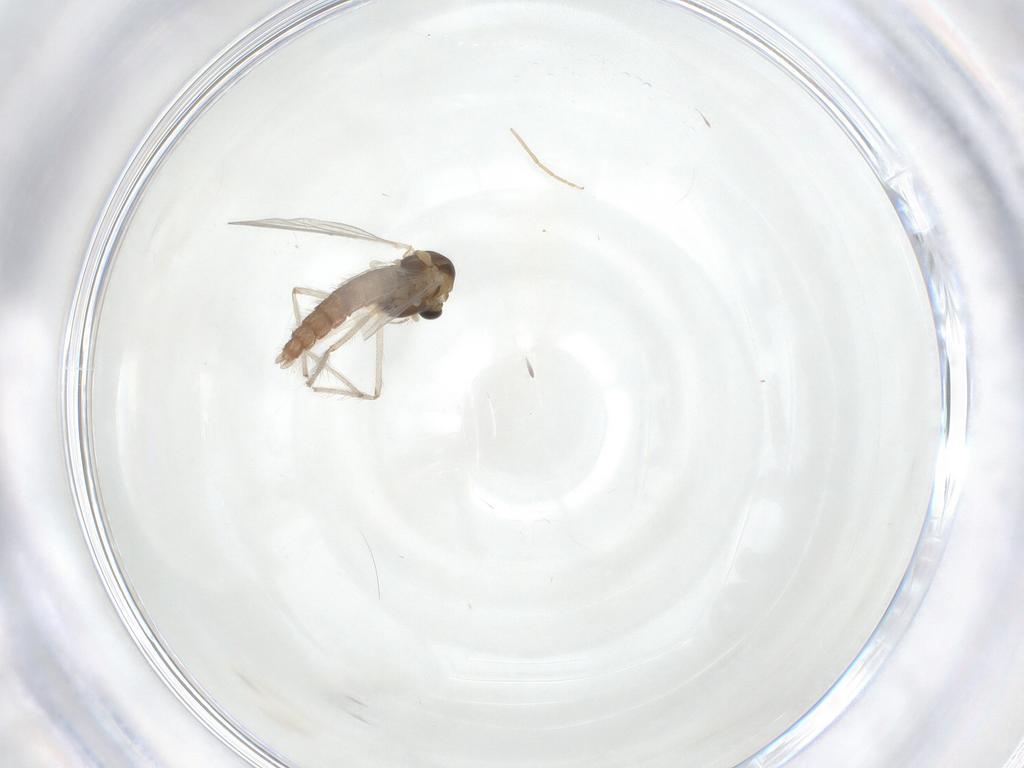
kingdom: Animalia
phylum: Arthropoda
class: Insecta
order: Diptera
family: Chironomidae
